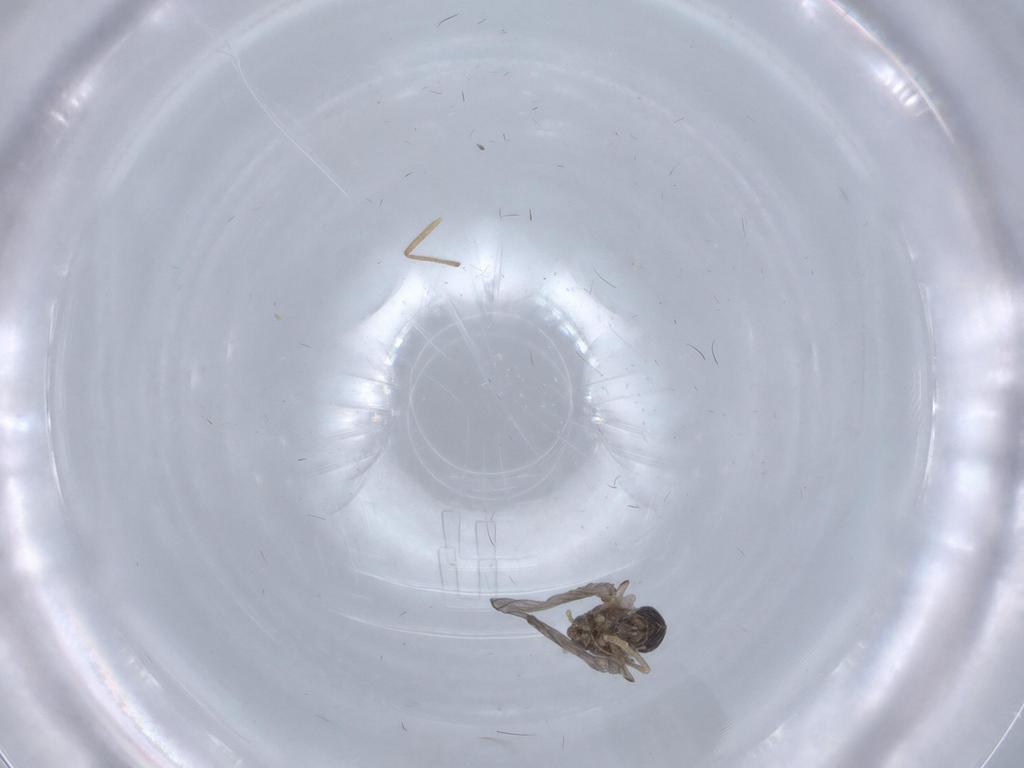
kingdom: Animalia
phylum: Arthropoda
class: Insecta
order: Diptera
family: Psychodidae
